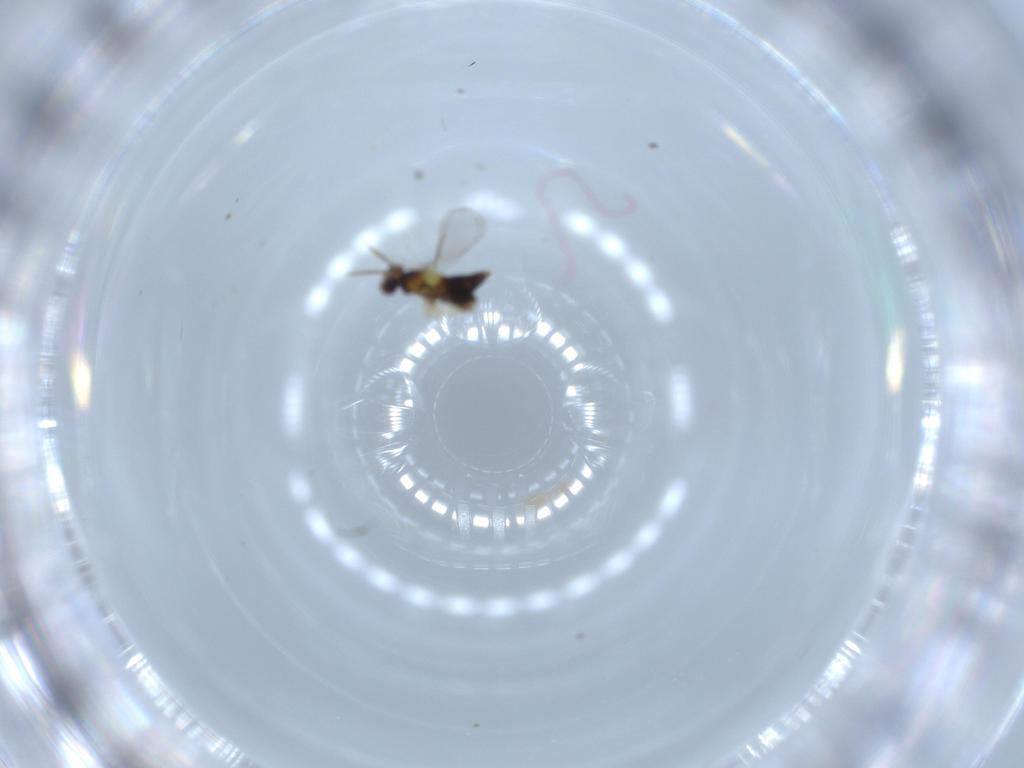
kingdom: Animalia
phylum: Arthropoda
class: Insecta
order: Hymenoptera
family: Aphelinidae
